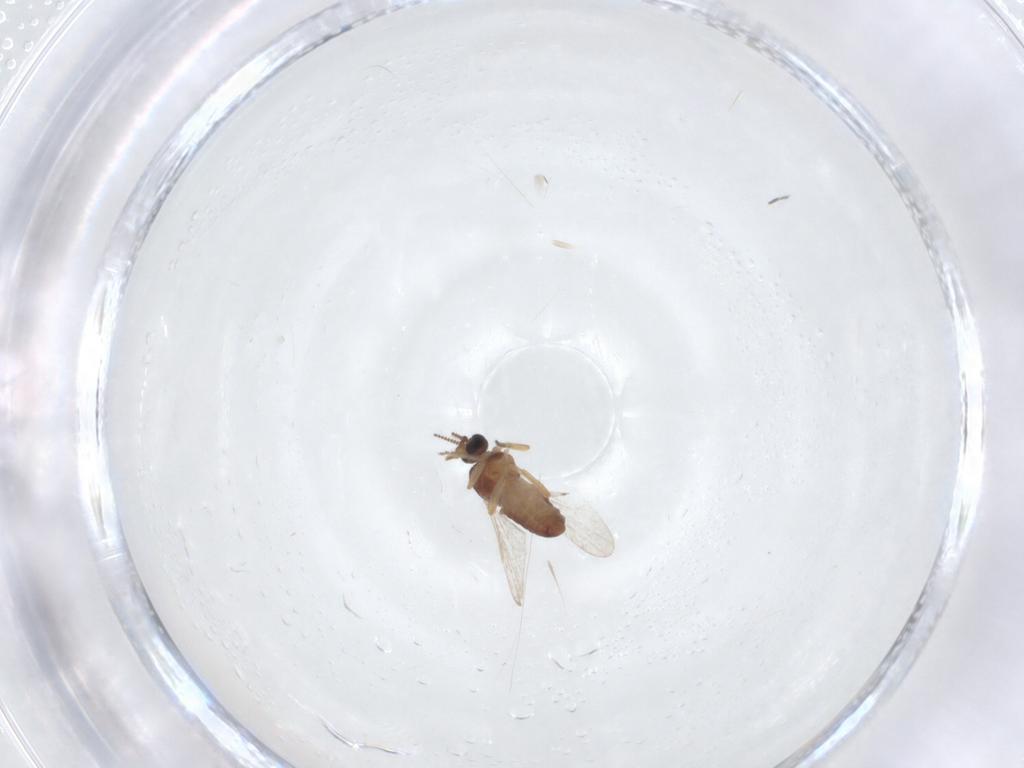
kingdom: Animalia
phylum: Arthropoda
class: Insecta
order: Diptera
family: Ceratopogonidae
